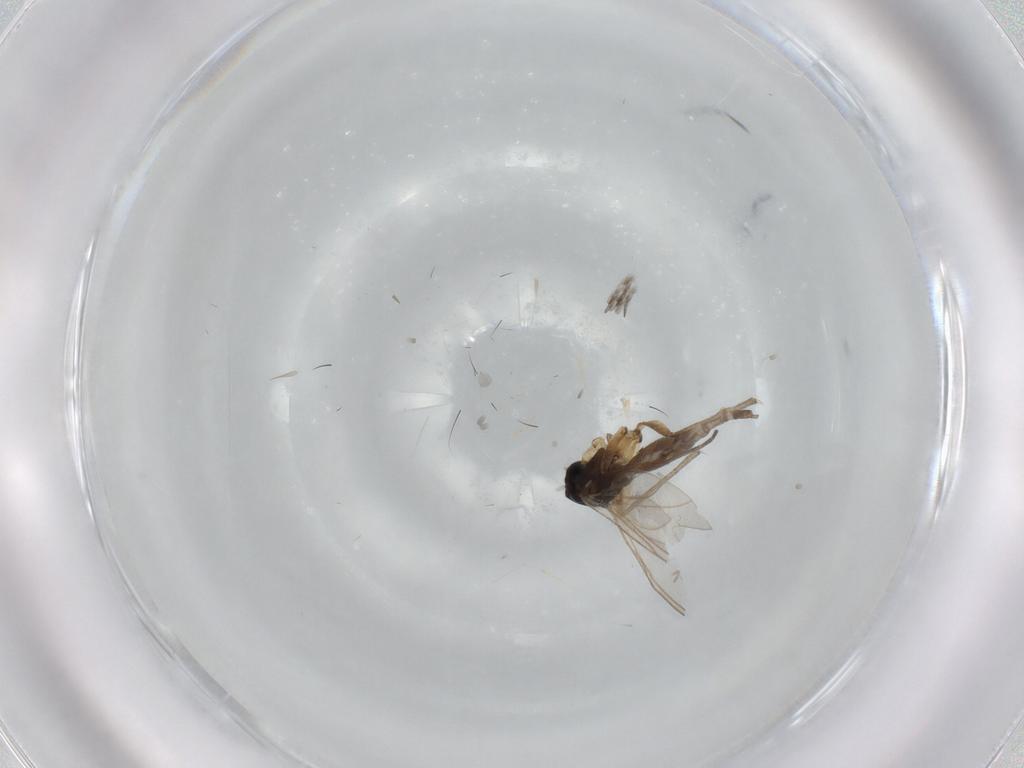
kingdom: Animalia
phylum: Arthropoda
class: Insecta
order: Diptera
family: Sciaridae
